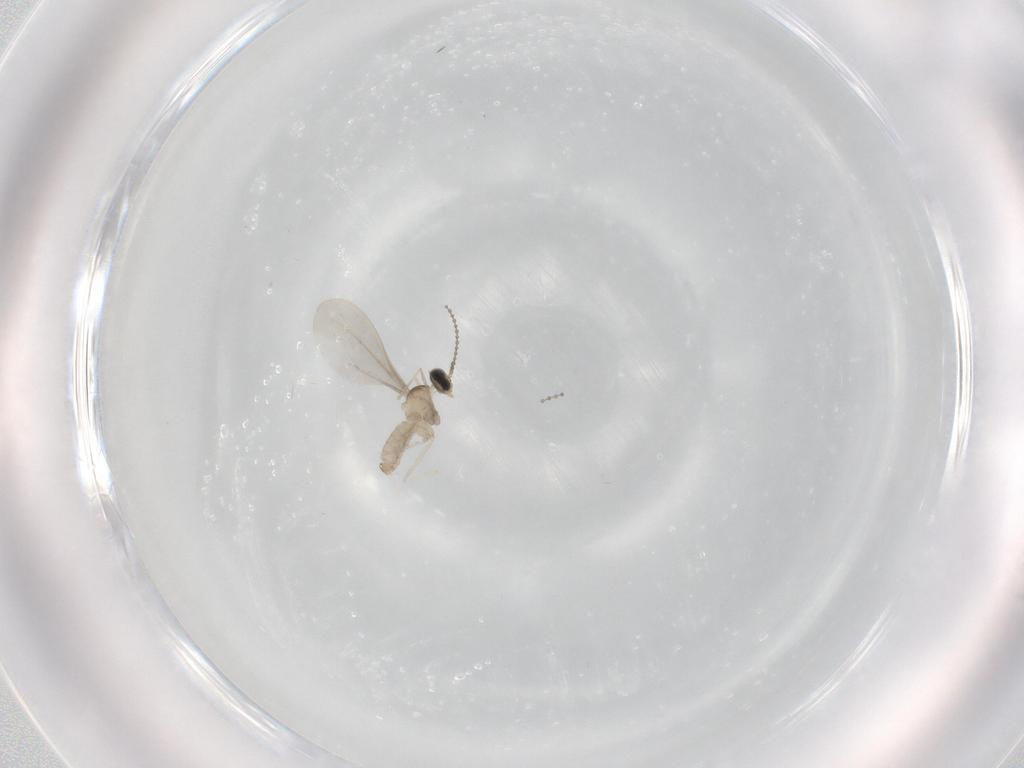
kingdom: Animalia
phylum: Arthropoda
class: Insecta
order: Diptera
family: Cecidomyiidae
